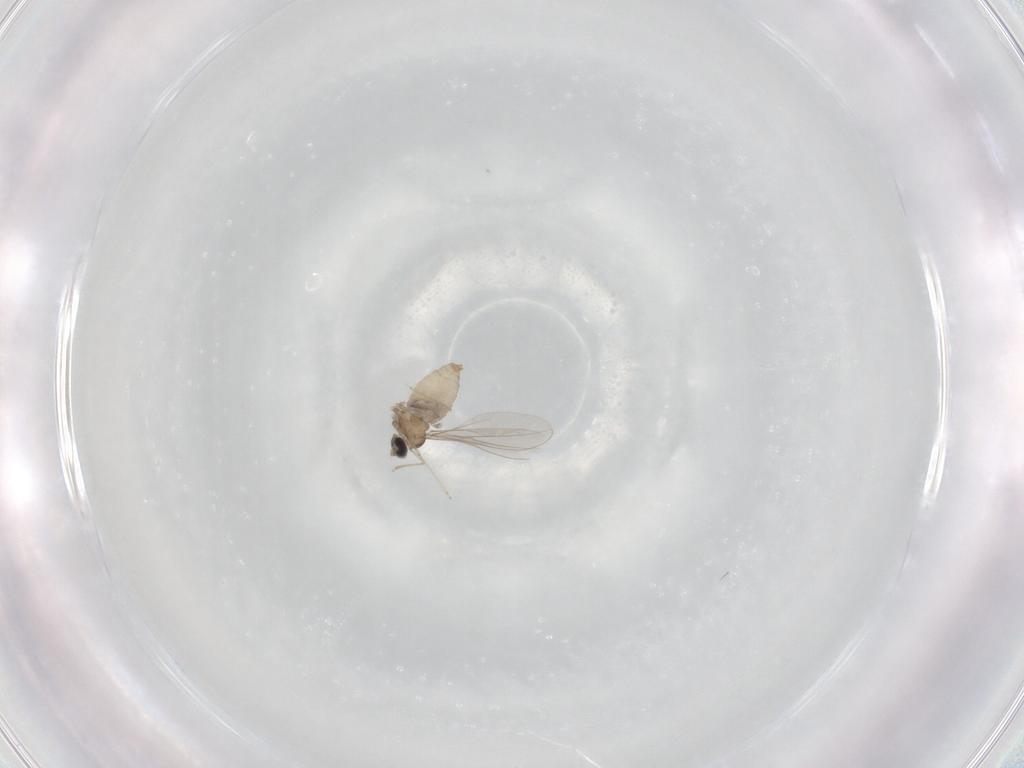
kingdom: Animalia
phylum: Arthropoda
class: Insecta
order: Diptera
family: Cecidomyiidae
